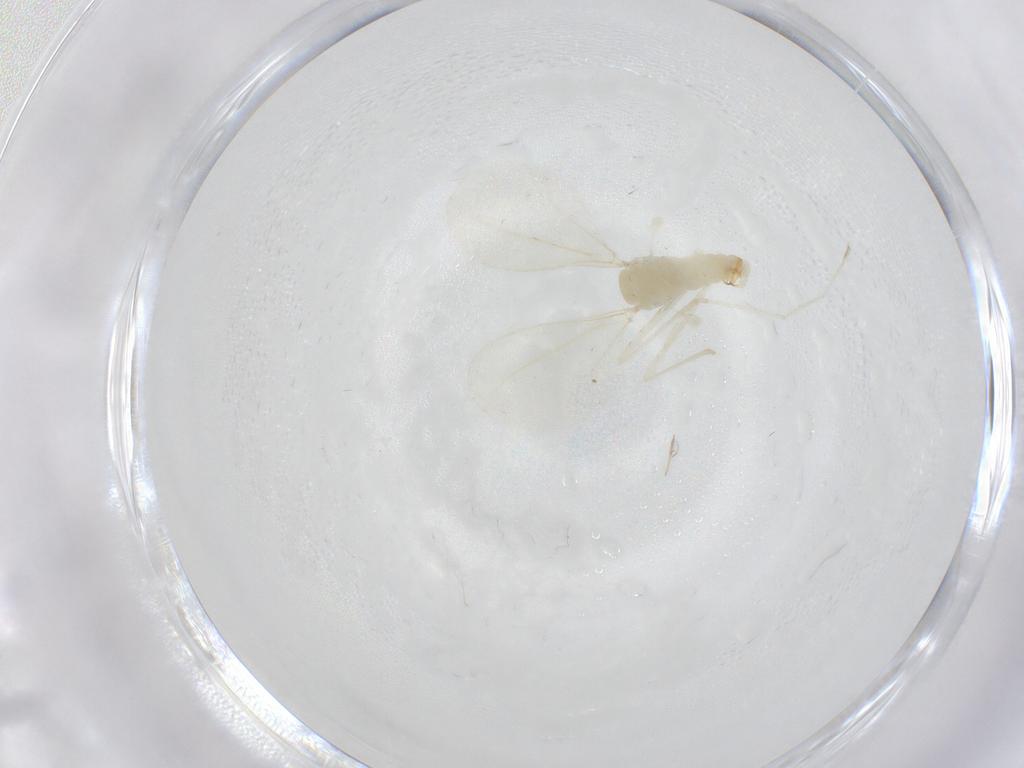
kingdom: Animalia
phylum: Arthropoda
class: Insecta
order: Diptera
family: Cecidomyiidae
